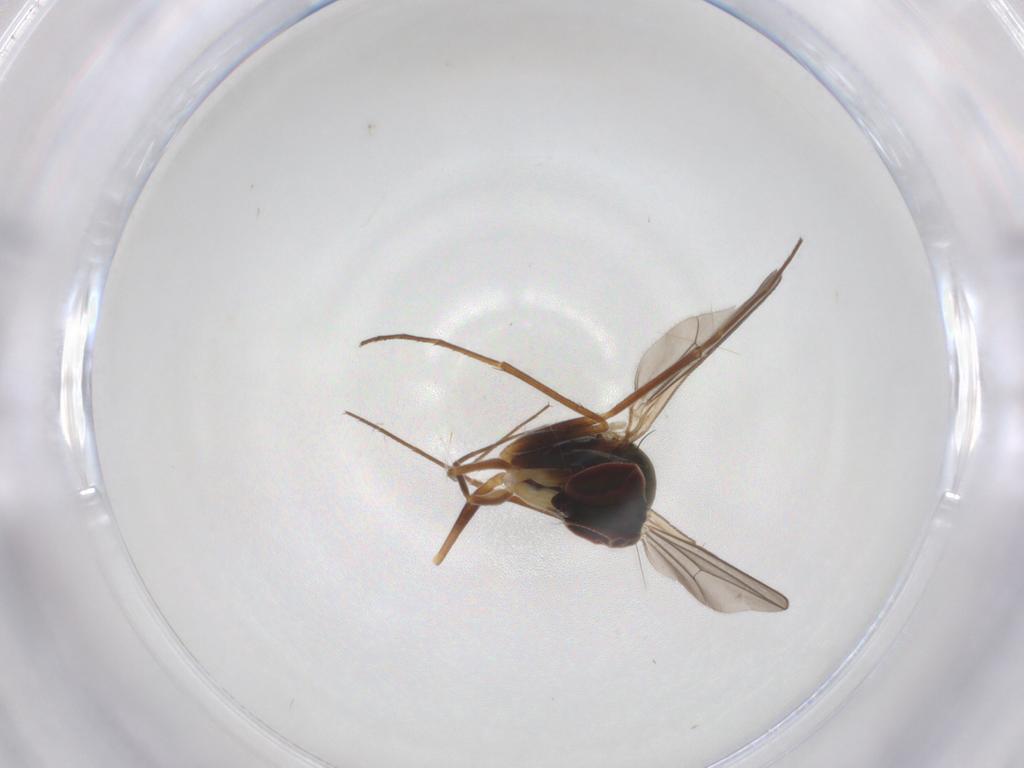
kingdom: Animalia
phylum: Arthropoda
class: Insecta
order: Diptera
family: Dolichopodidae
